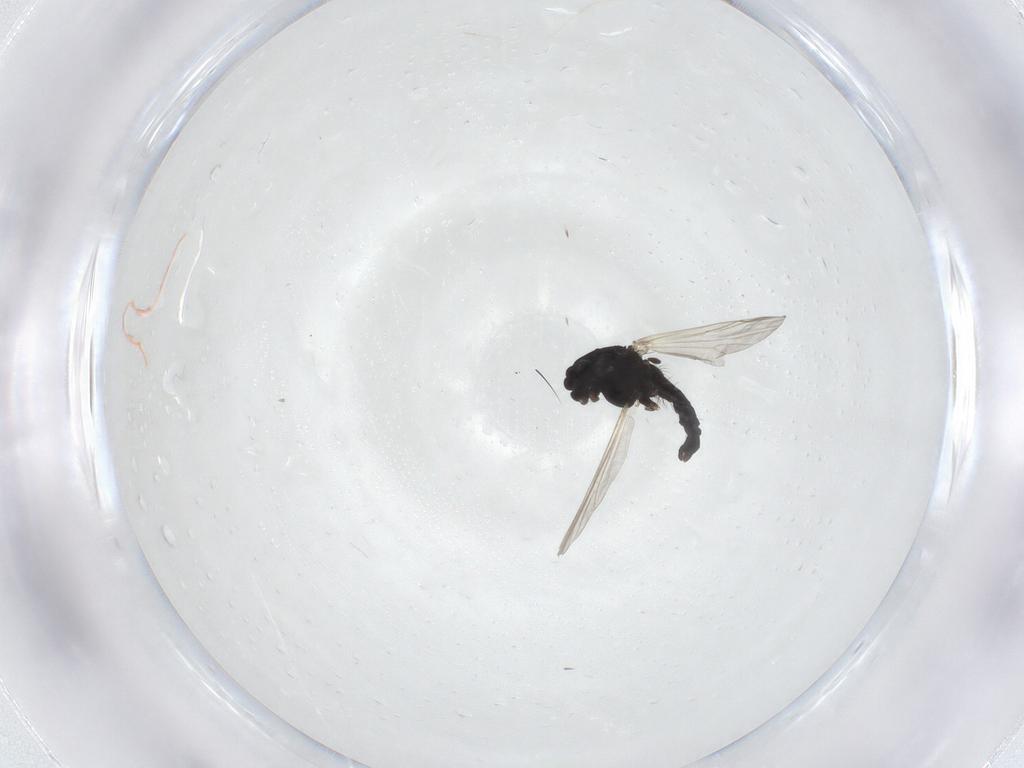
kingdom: Animalia
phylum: Arthropoda
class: Insecta
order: Diptera
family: Chironomidae
